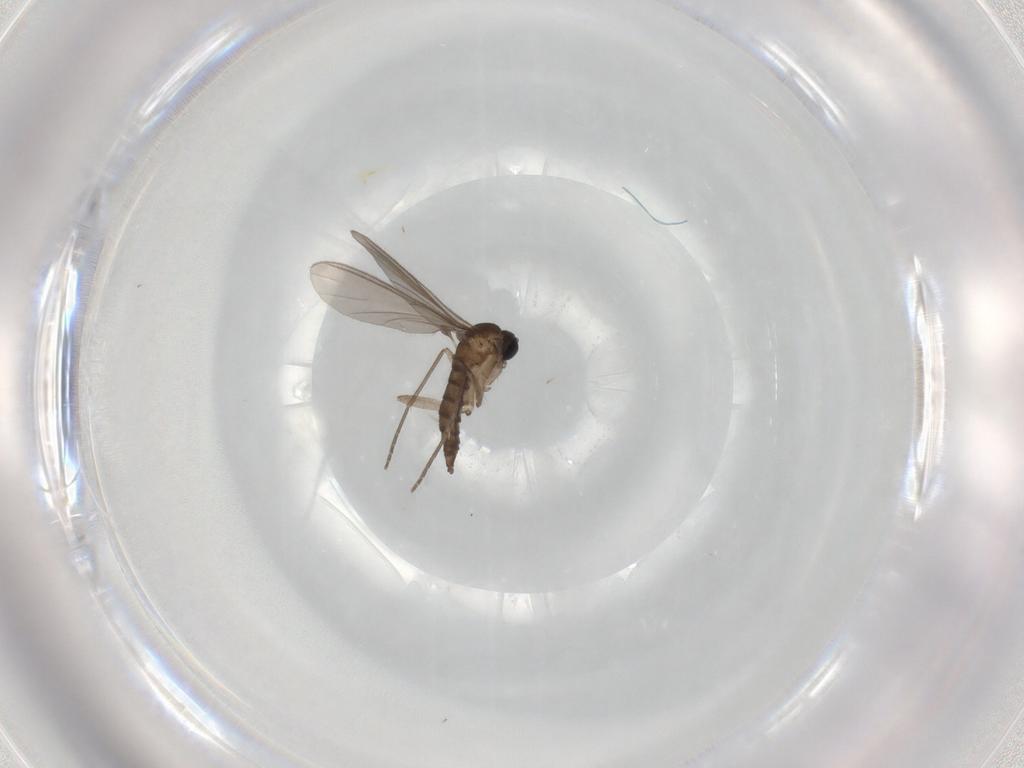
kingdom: Animalia
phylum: Arthropoda
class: Insecta
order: Diptera
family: Sciaridae
